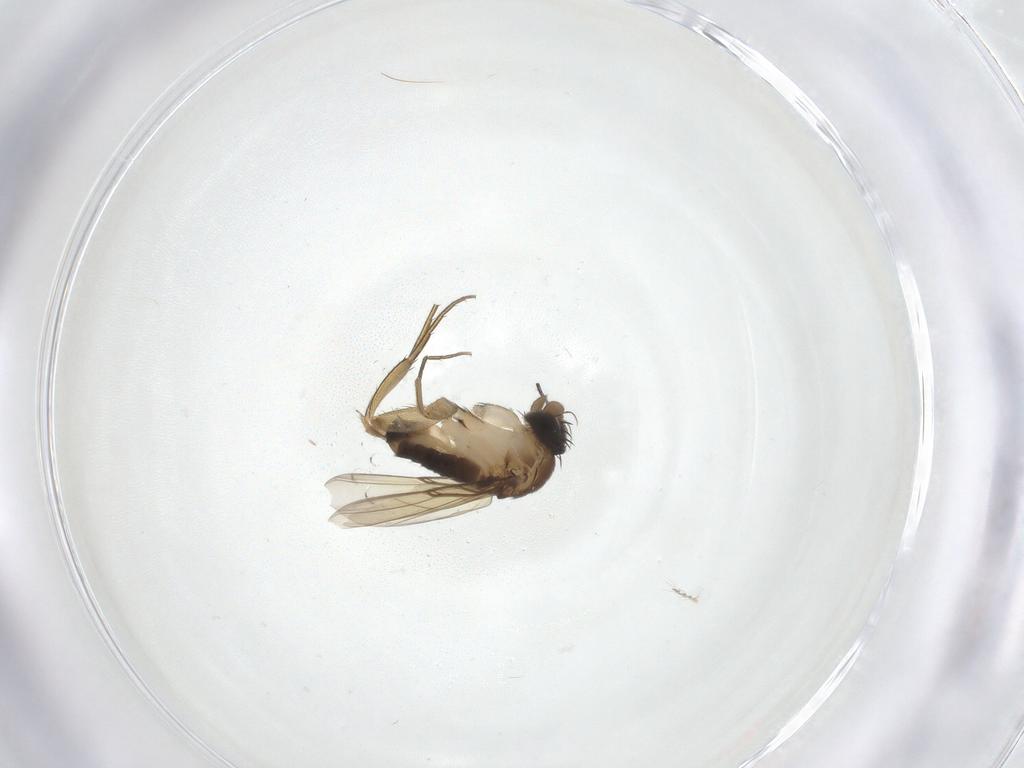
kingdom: Animalia
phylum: Arthropoda
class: Insecta
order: Diptera
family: Phoridae
